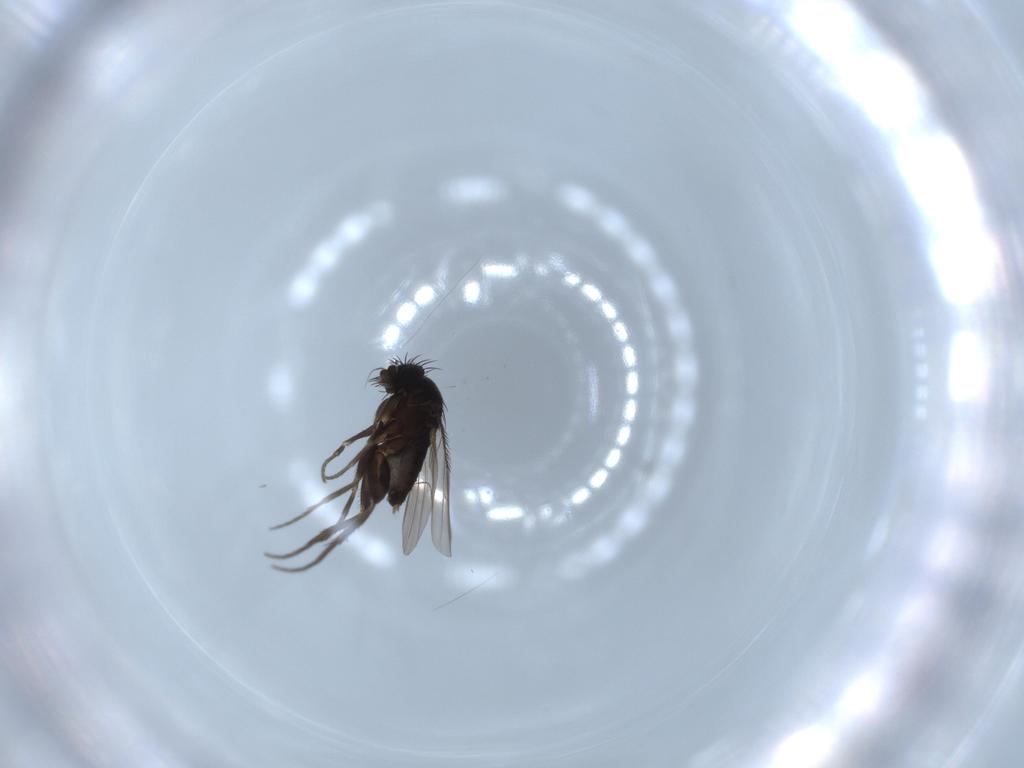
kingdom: Animalia
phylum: Arthropoda
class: Insecta
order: Diptera
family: Phoridae
